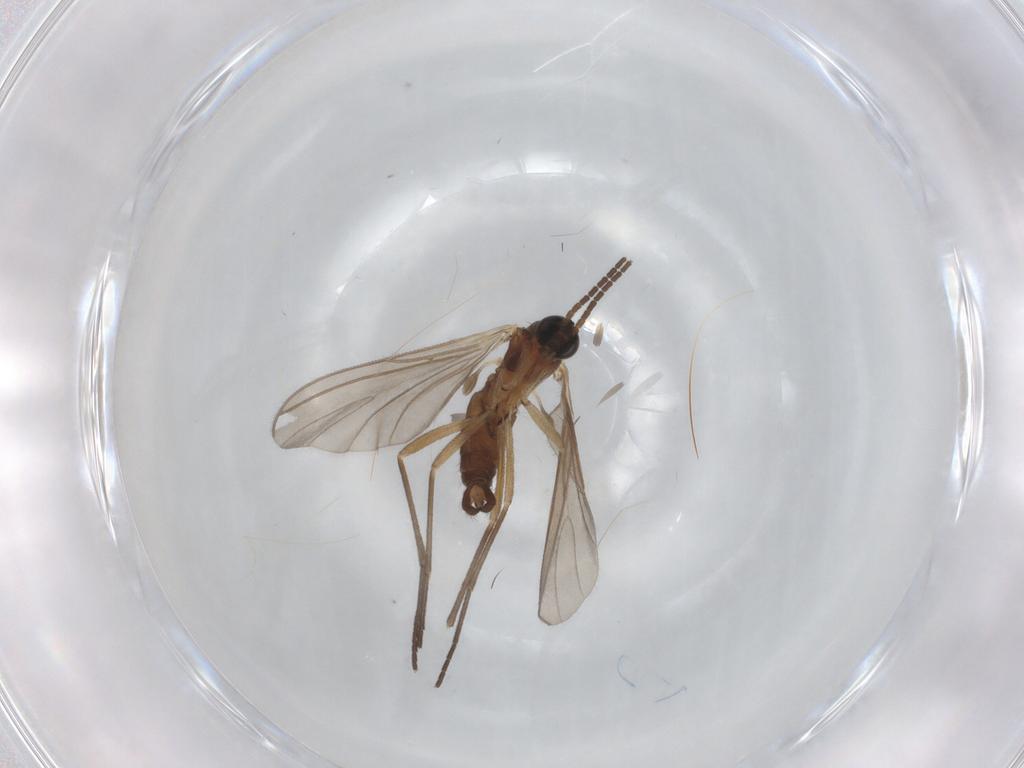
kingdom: Animalia
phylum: Arthropoda
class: Insecta
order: Diptera
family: Sciaridae
